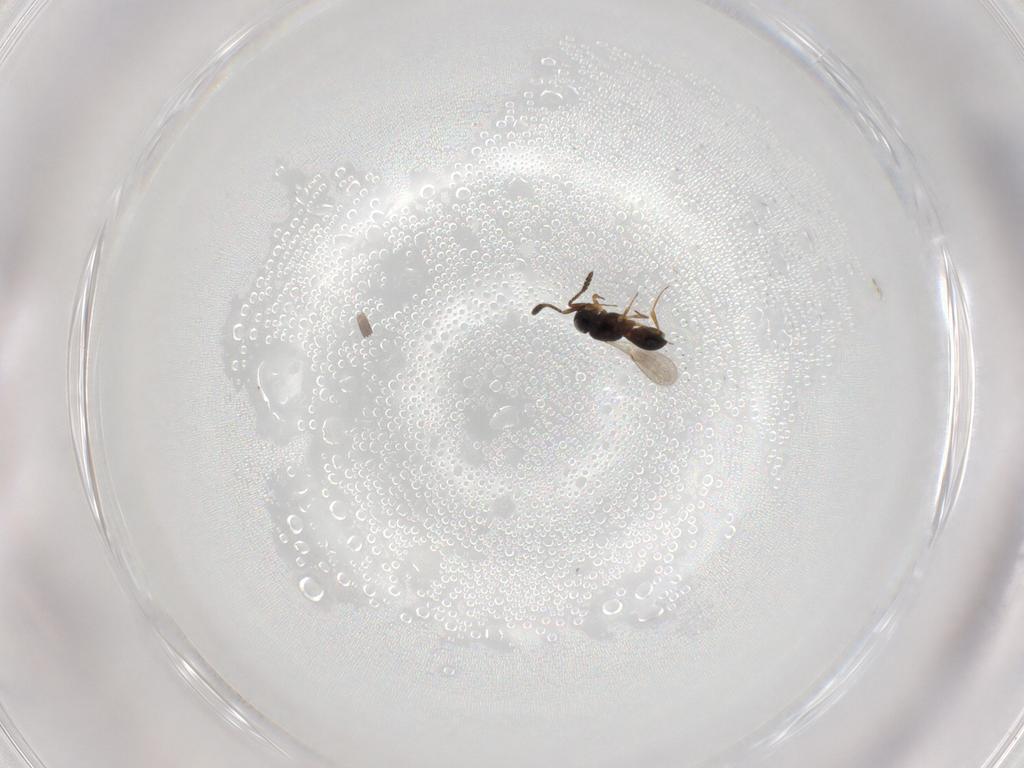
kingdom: Animalia
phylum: Arthropoda
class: Insecta
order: Hymenoptera
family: Scelionidae
